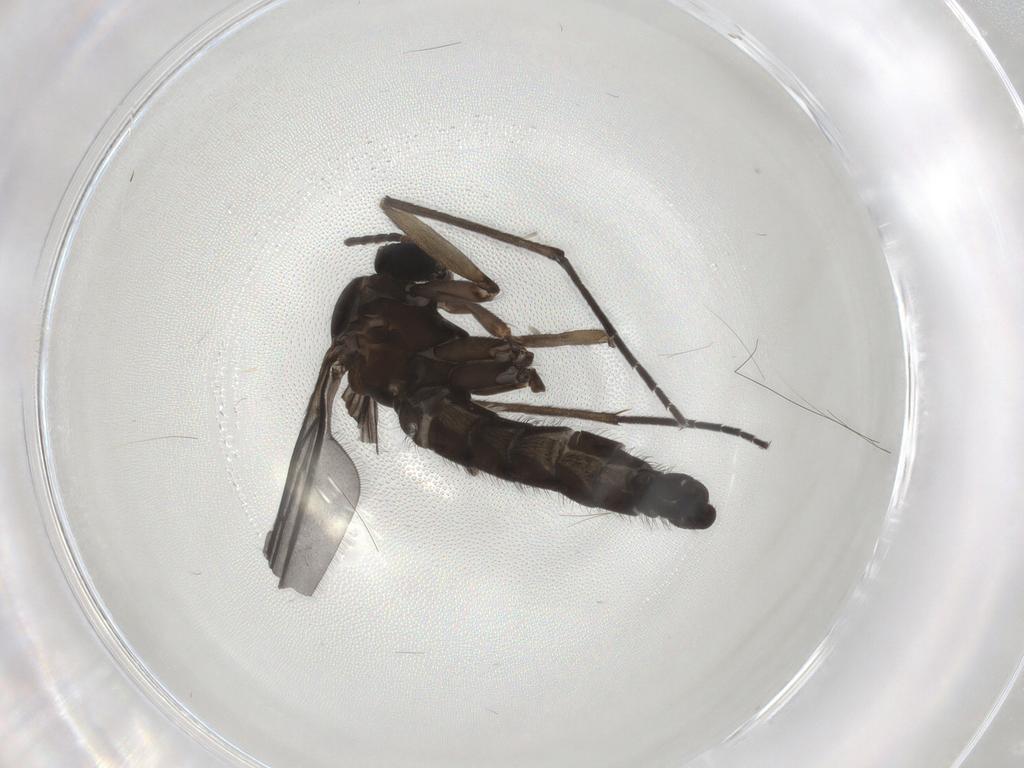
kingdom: Animalia
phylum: Arthropoda
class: Insecta
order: Diptera
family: Sciaridae
